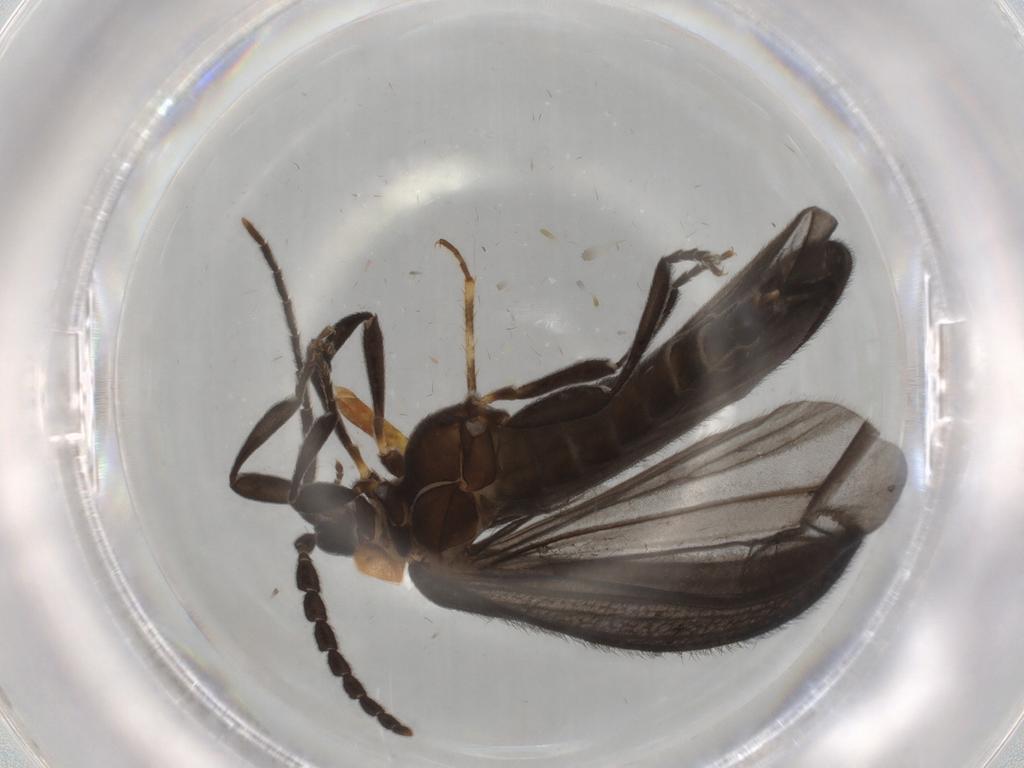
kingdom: Animalia
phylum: Arthropoda
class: Insecta
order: Coleoptera
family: Lycidae
